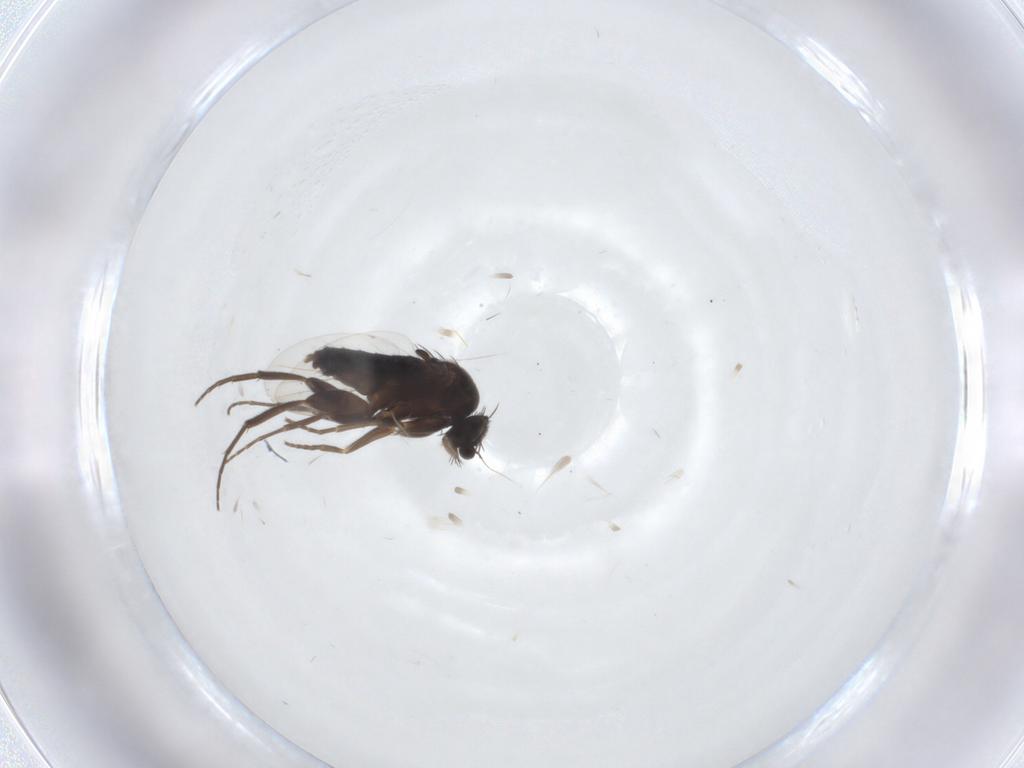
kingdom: Animalia
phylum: Arthropoda
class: Insecta
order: Diptera
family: Phoridae
